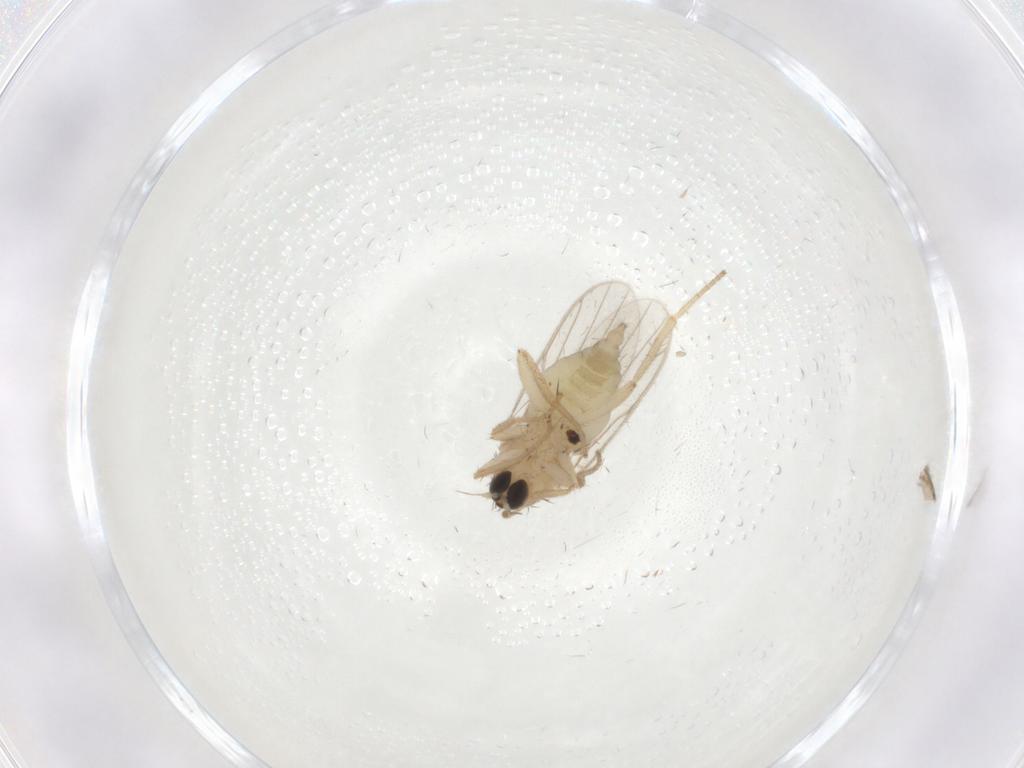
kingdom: Animalia
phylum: Arthropoda
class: Insecta
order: Diptera
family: Hybotidae
